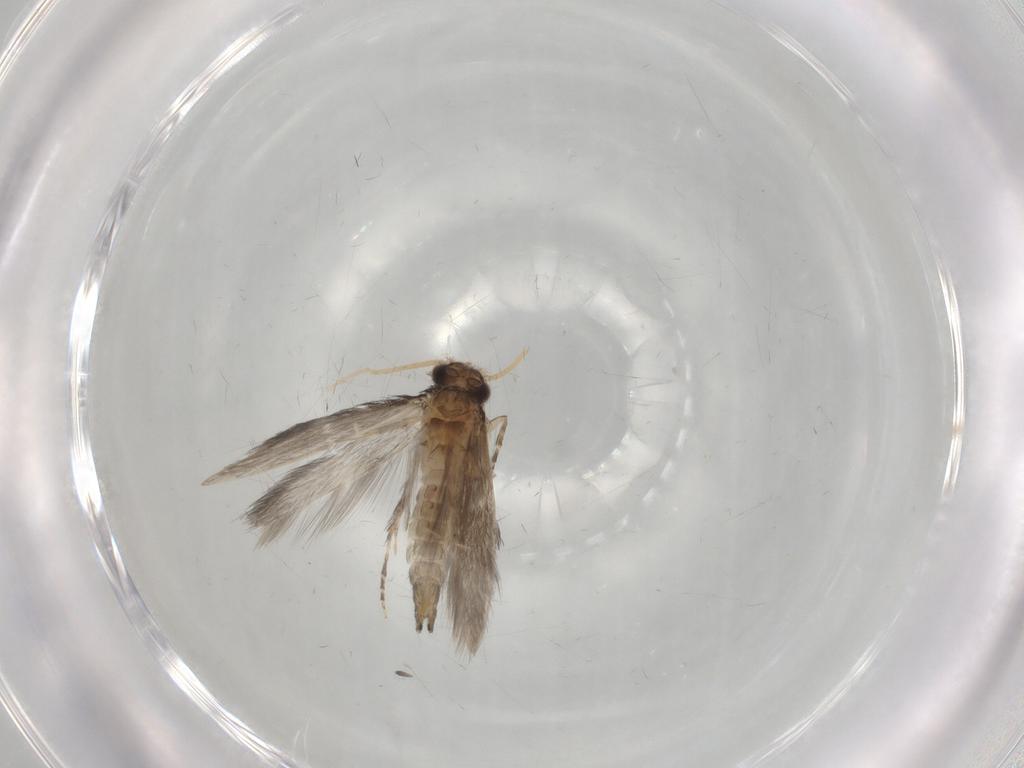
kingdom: Animalia
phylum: Arthropoda
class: Insecta
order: Trichoptera
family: Hydroptilidae
